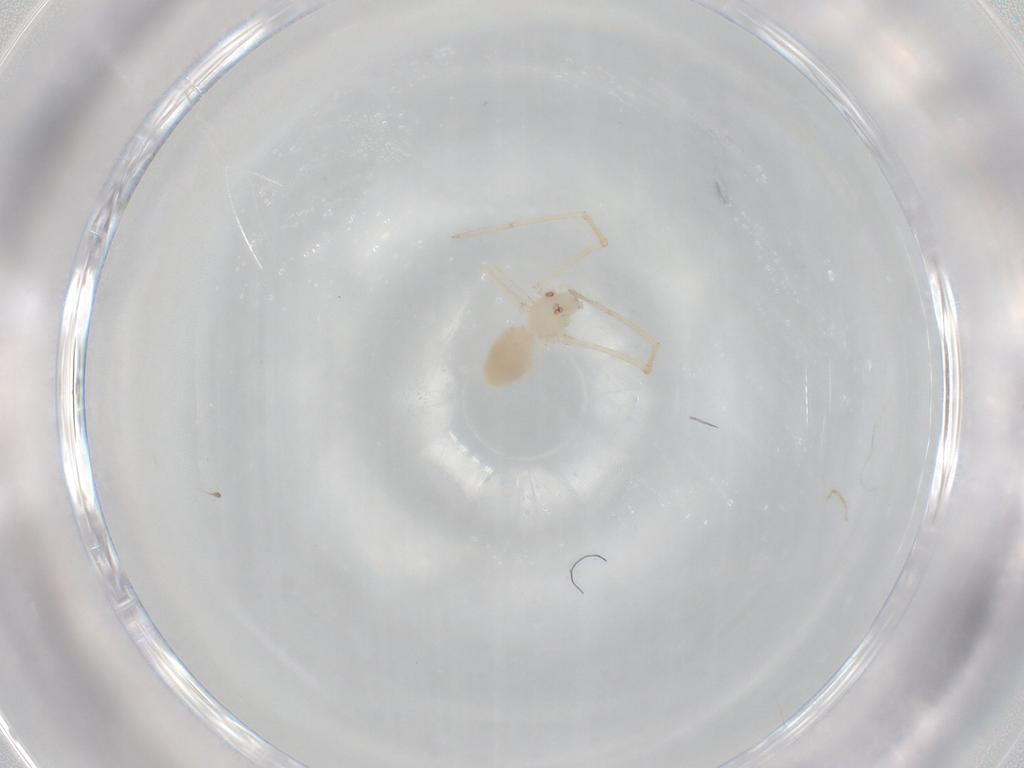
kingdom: Animalia
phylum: Arthropoda
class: Arachnida
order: Araneae
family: Pholcidae
